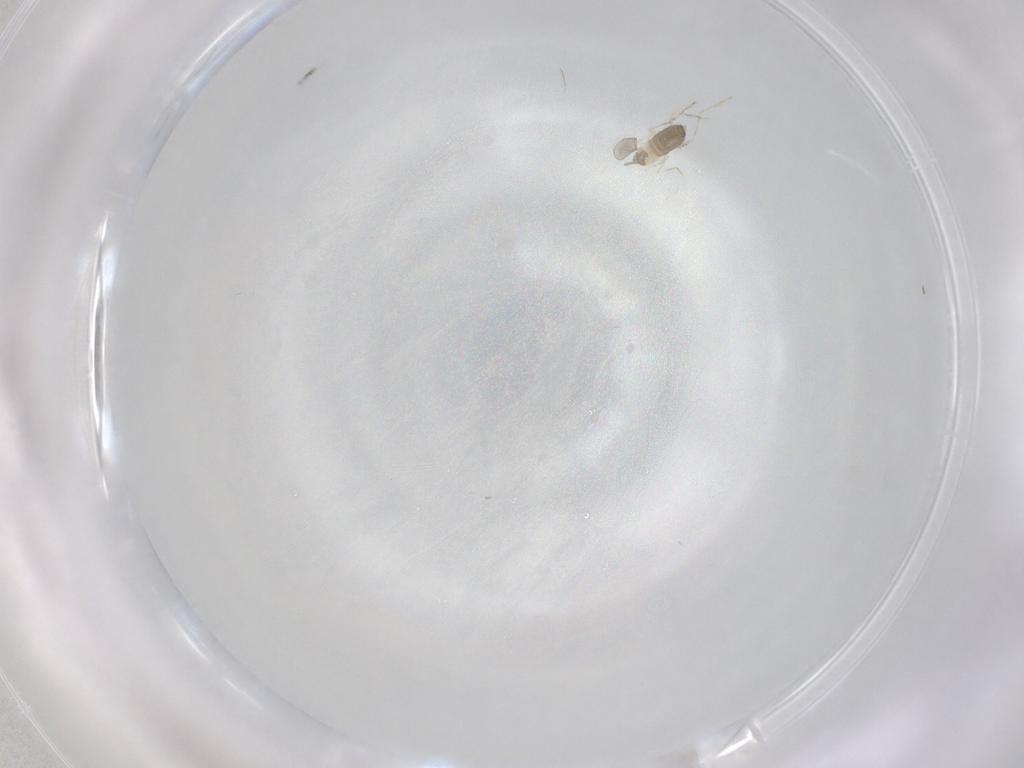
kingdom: Animalia
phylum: Arthropoda
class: Insecta
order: Diptera
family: Cecidomyiidae
